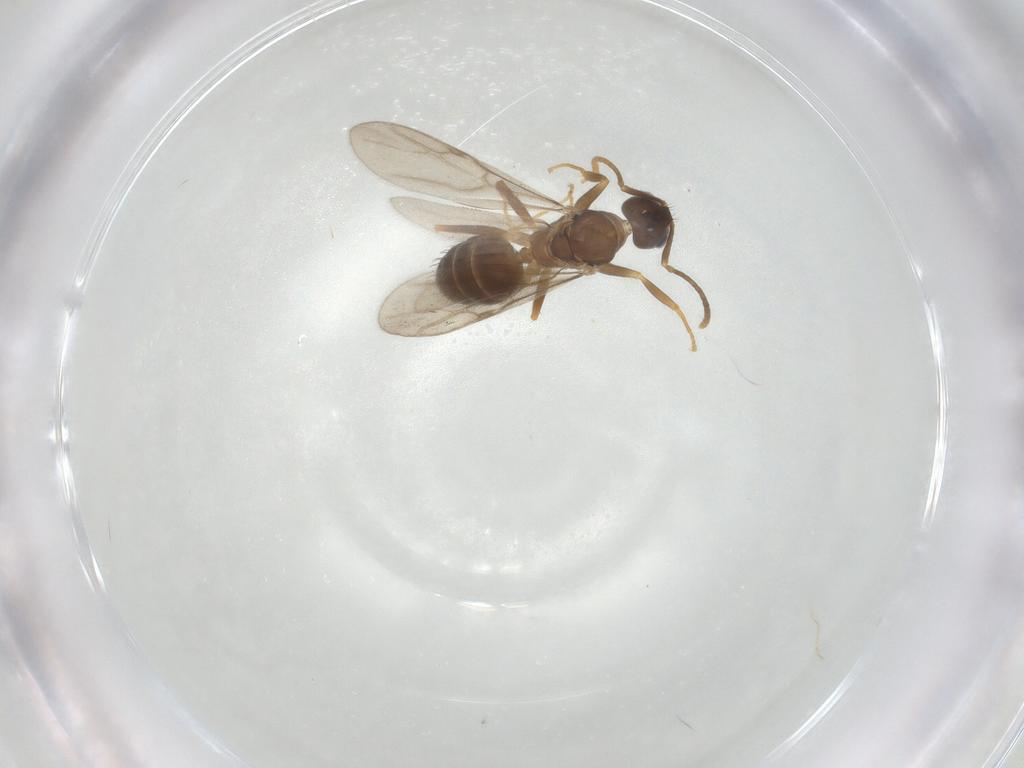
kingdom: Animalia
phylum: Arthropoda
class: Insecta
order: Hymenoptera
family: Formicidae
